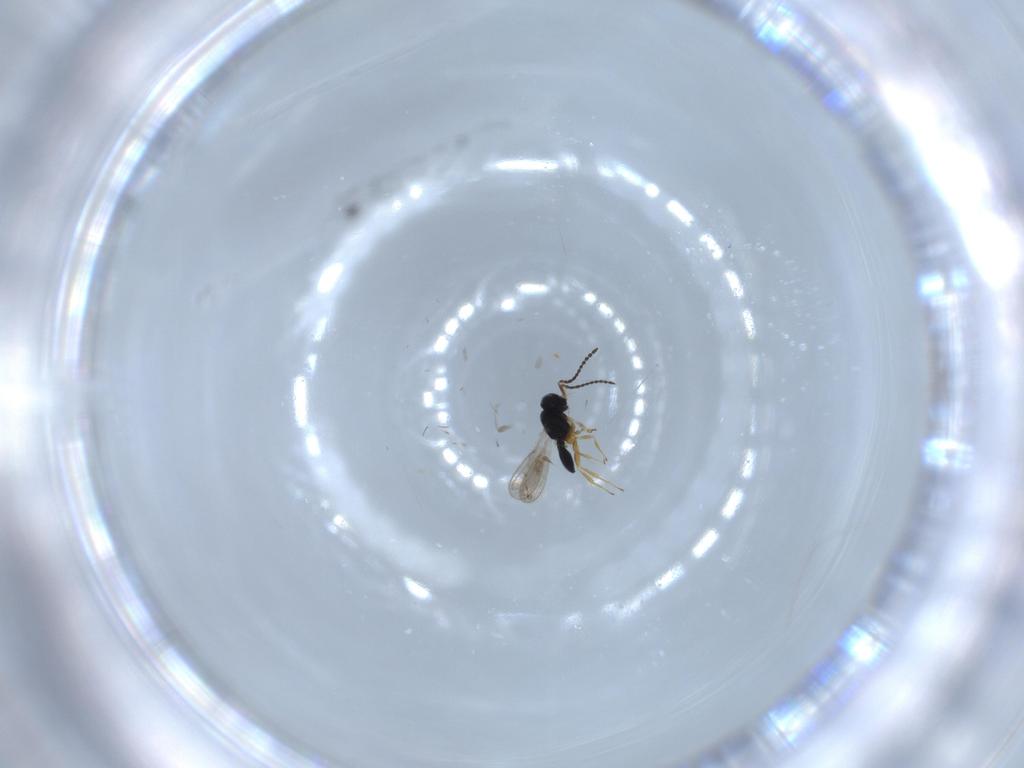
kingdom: Animalia
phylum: Arthropoda
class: Insecta
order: Hymenoptera
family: Scelionidae
